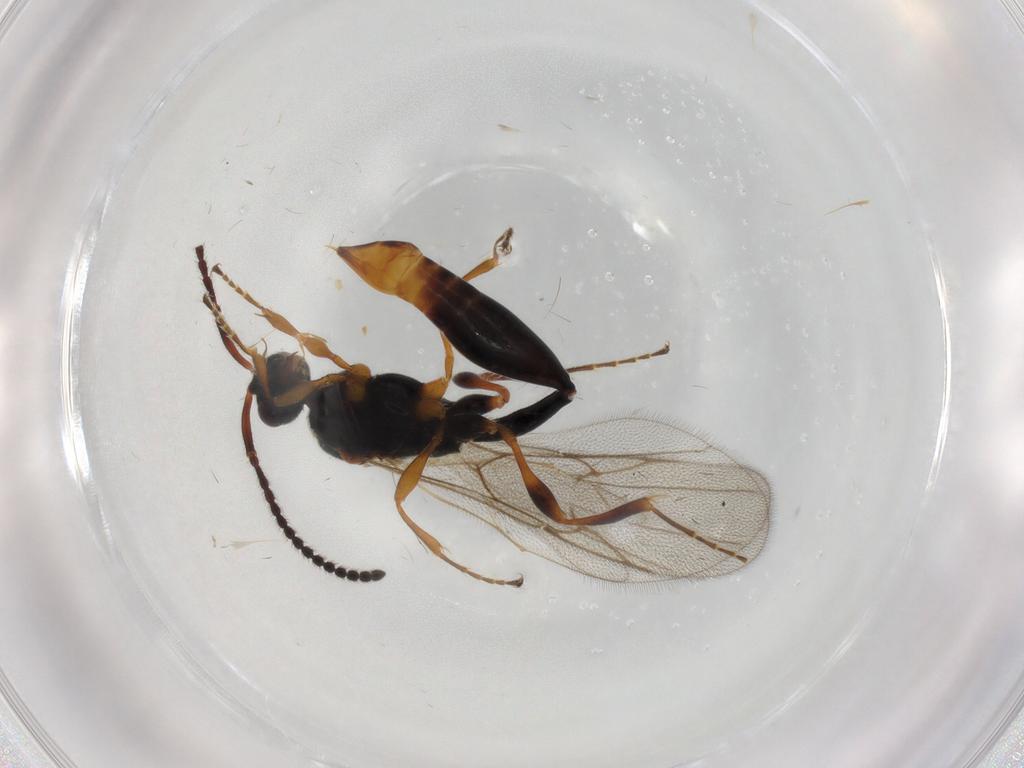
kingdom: Animalia
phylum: Arthropoda
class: Insecta
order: Hymenoptera
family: Diapriidae
